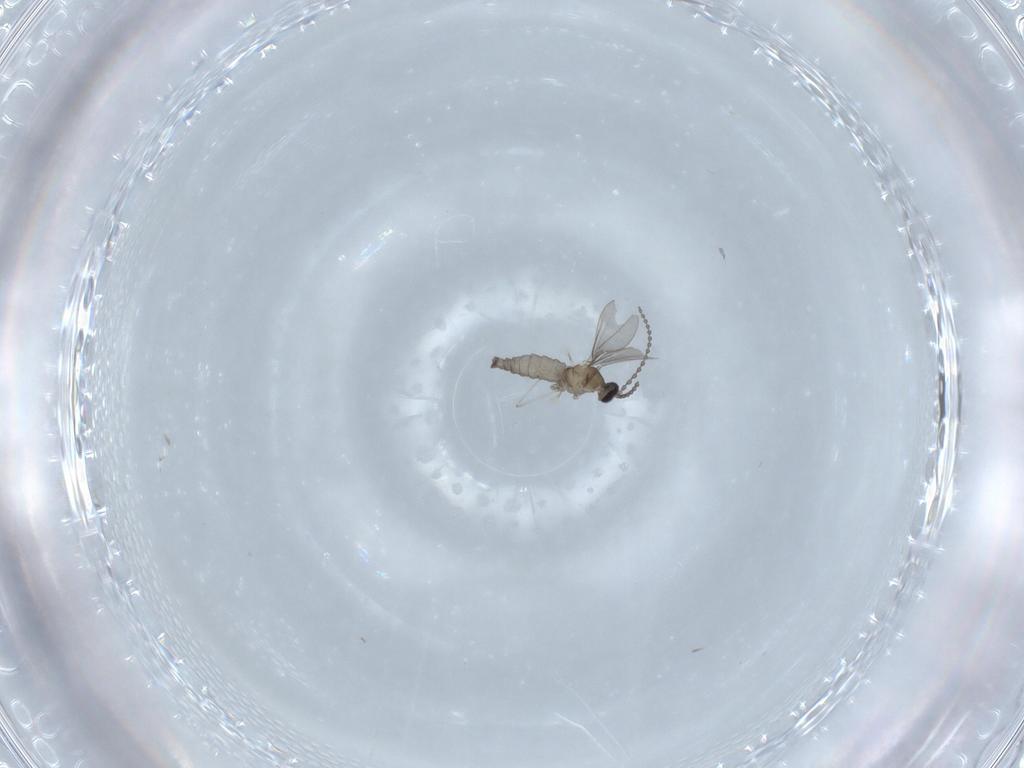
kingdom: Animalia
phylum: Arthropoda
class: Insecta
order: Diptera
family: Cecidomyiidae
